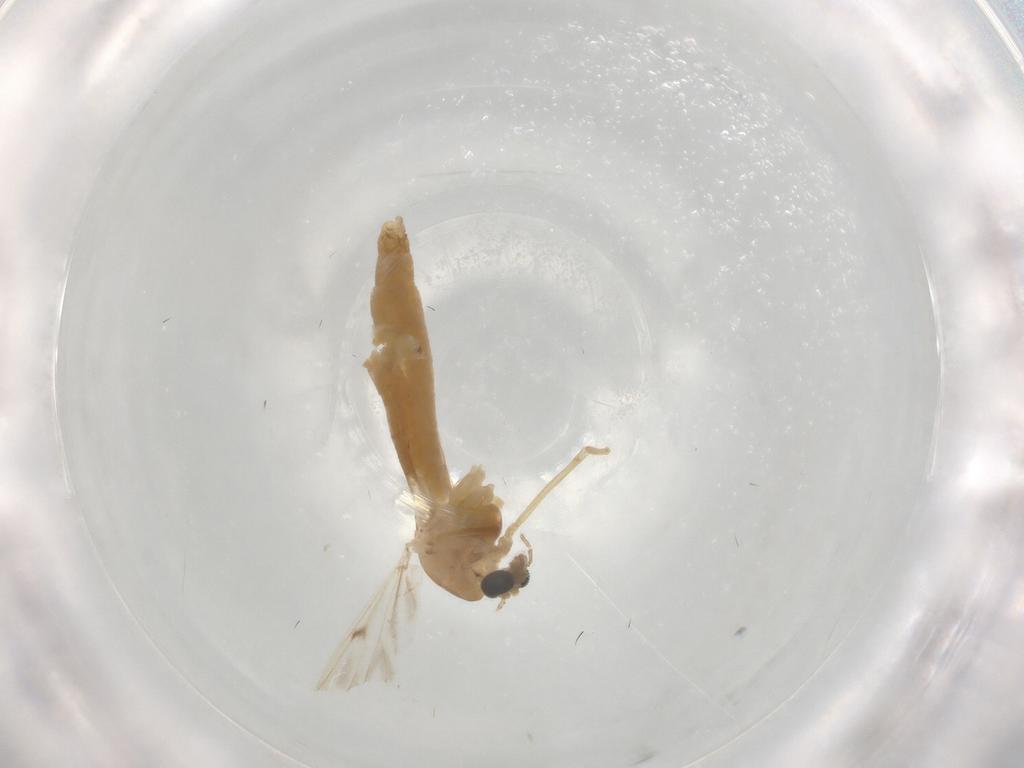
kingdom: Animalia
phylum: Arthropoda
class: Insecta
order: Diptera
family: Chironomidae
